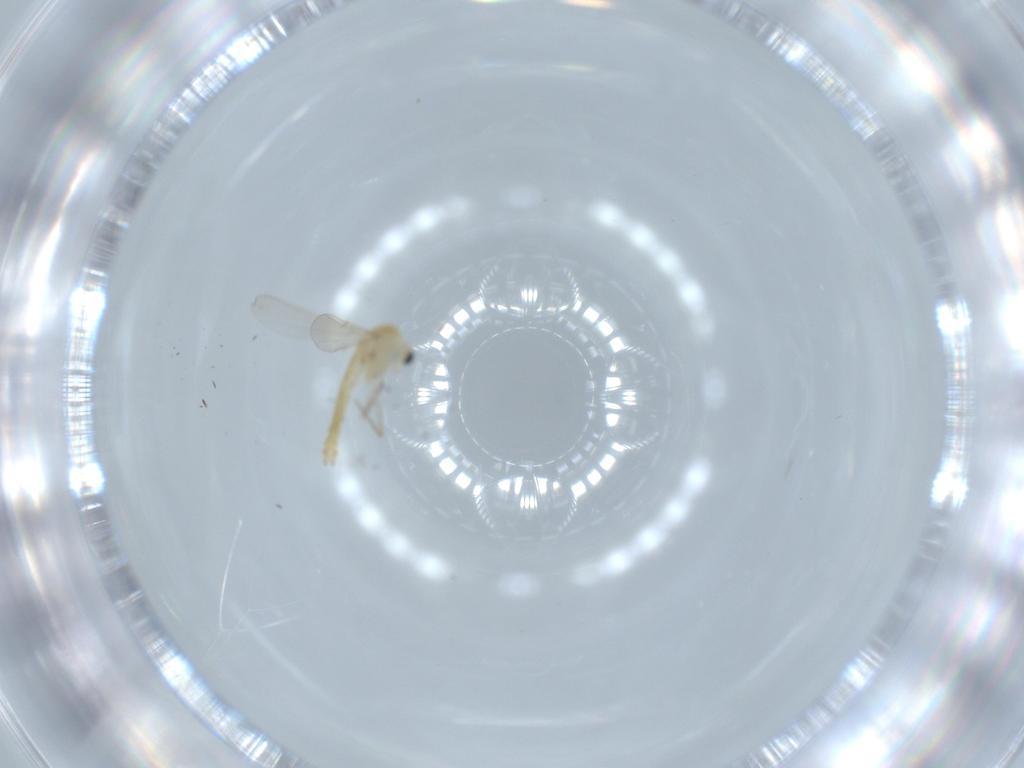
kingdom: Animalia
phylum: Arthropoda
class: Insecta
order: Diptera
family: Chironomidae
